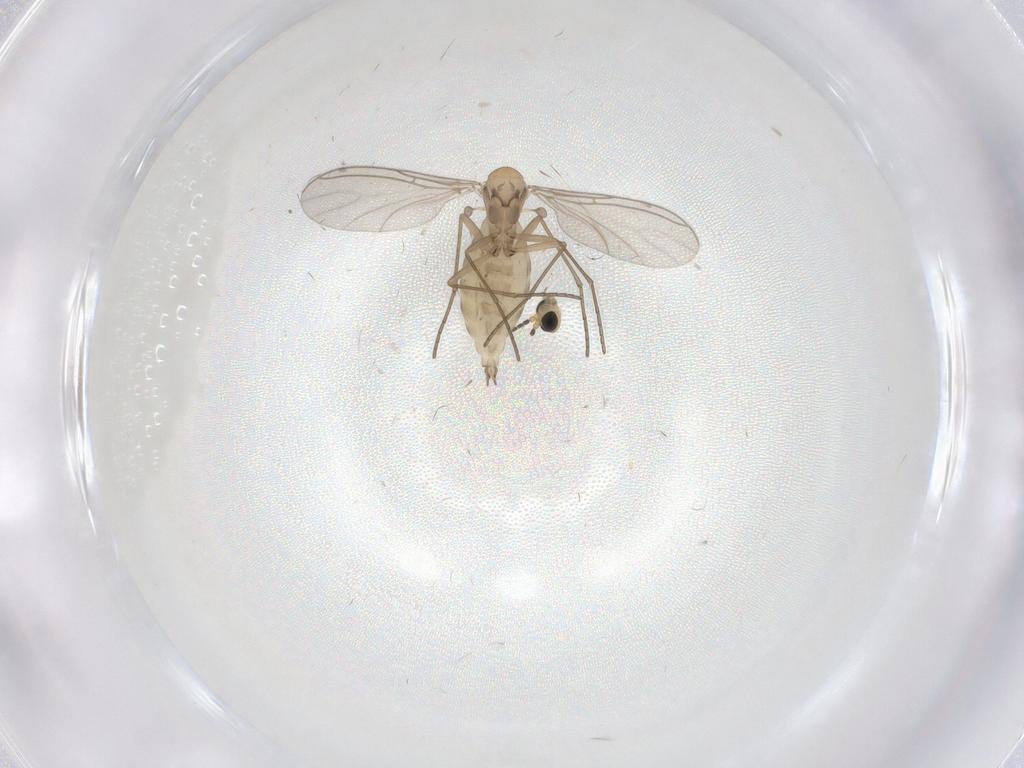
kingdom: Animalia
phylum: Arthropoda
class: Insecta
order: Diptera
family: Sciaridae
